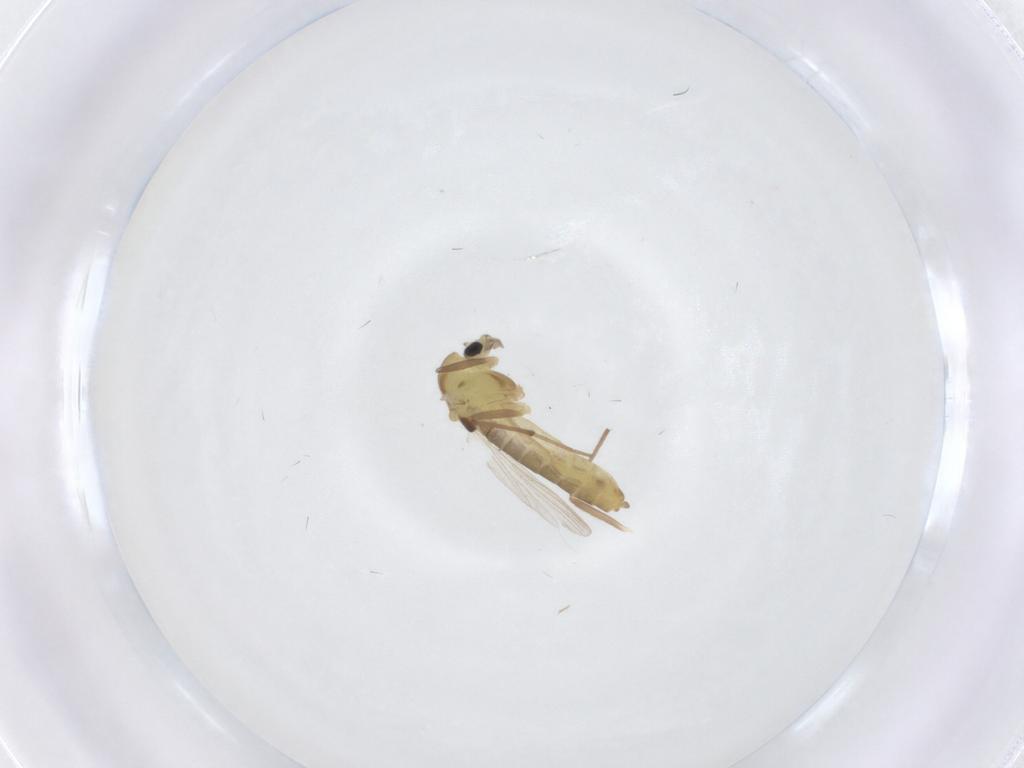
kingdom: Animalia
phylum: Arthropoda
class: Insecta
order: Diptera
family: Chironomidae
